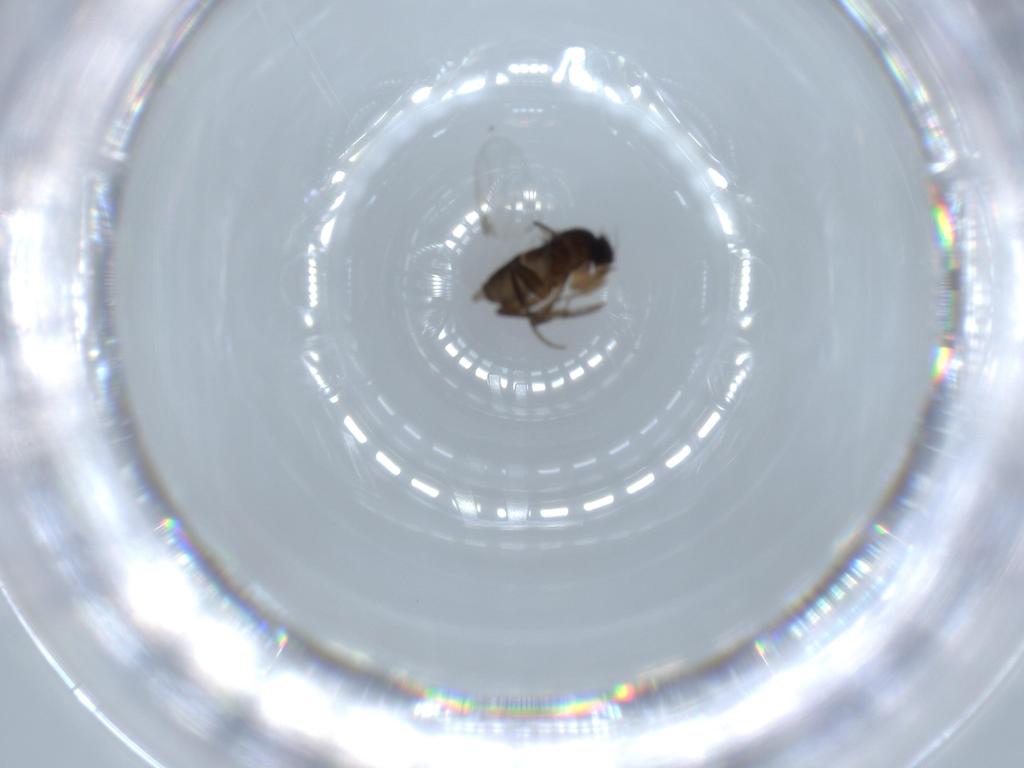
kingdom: Animalia
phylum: Arthropoda
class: Insecta
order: Diptera
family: Phoridae
